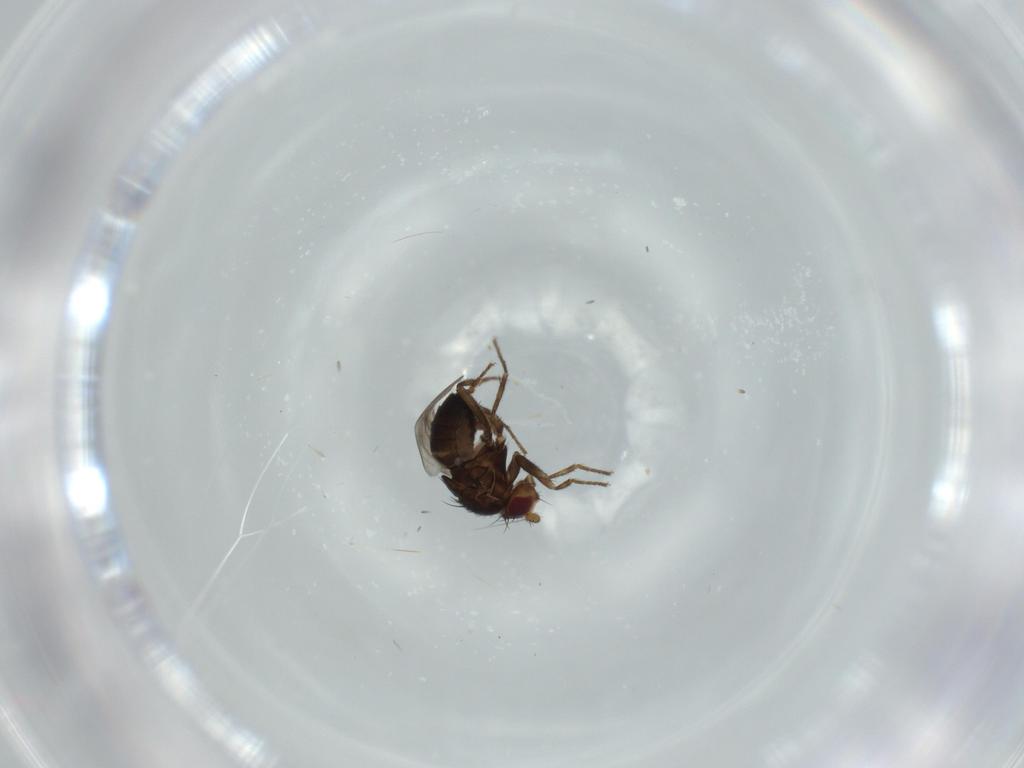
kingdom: Animalia
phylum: Arthropoda
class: Insecta
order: Diptera
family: Sphaeroceridae
